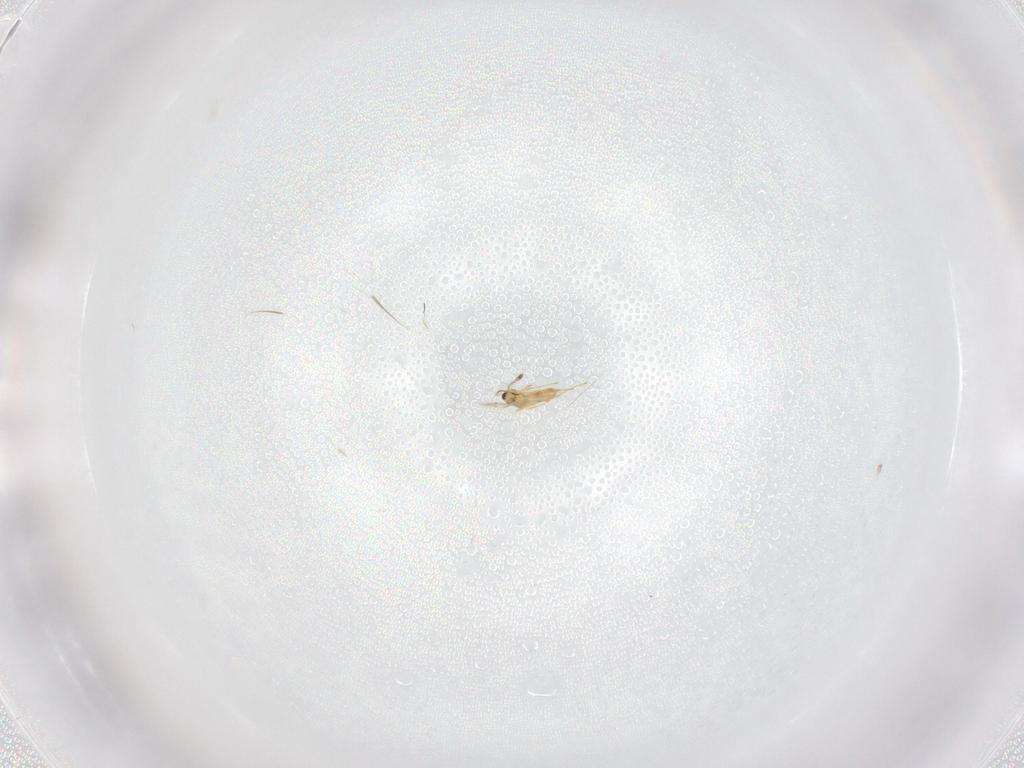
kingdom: Animalia
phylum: Arthropoda
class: Insecta
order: Hymenoptera
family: Mymaridae
